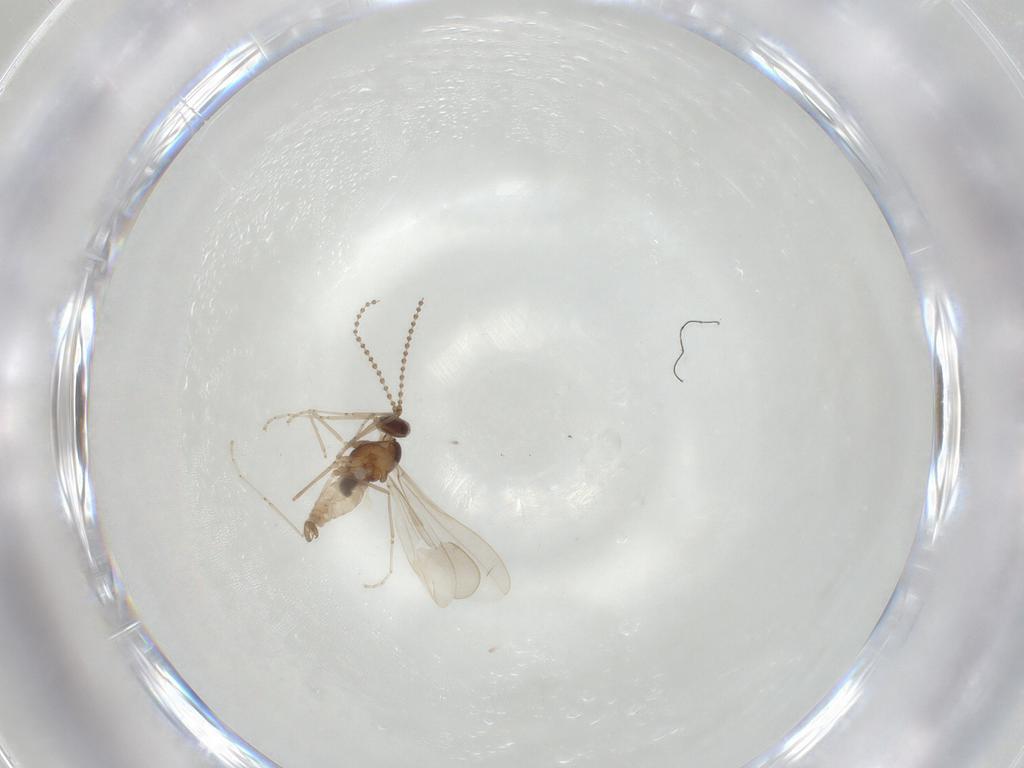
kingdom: Animalia
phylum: Arthropoda
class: Insecta
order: Diptera
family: Cecidomyiidae
